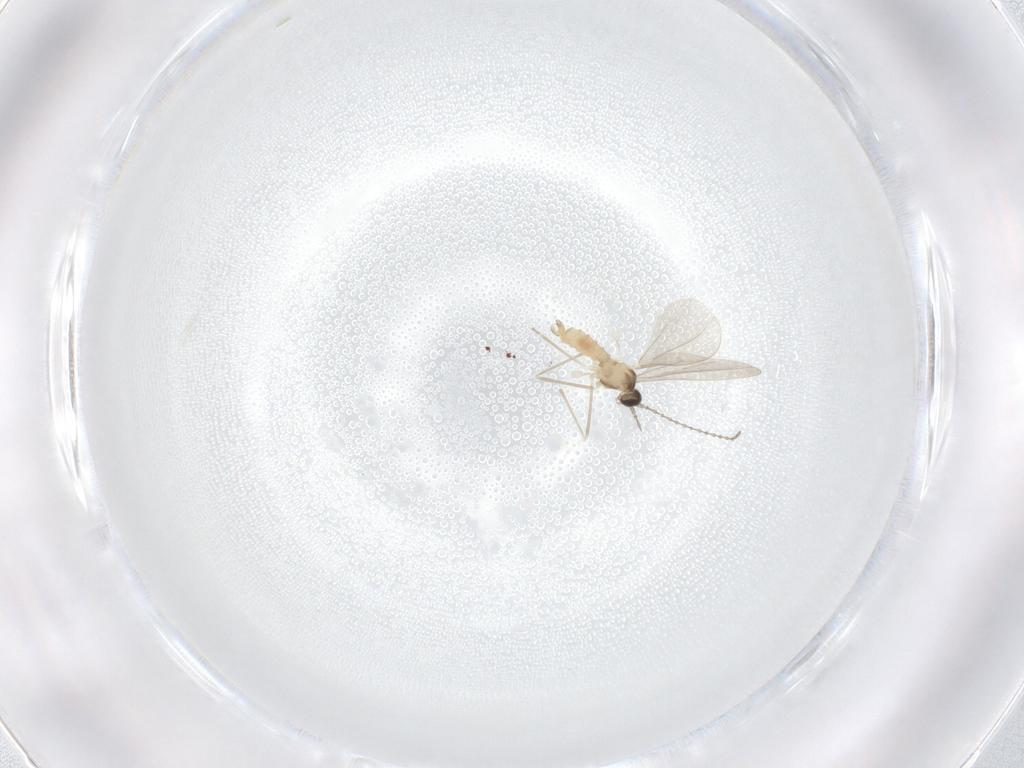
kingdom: Animalia
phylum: Arthropoda
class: Insecta
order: Diptera
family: Cecidomyiidae
